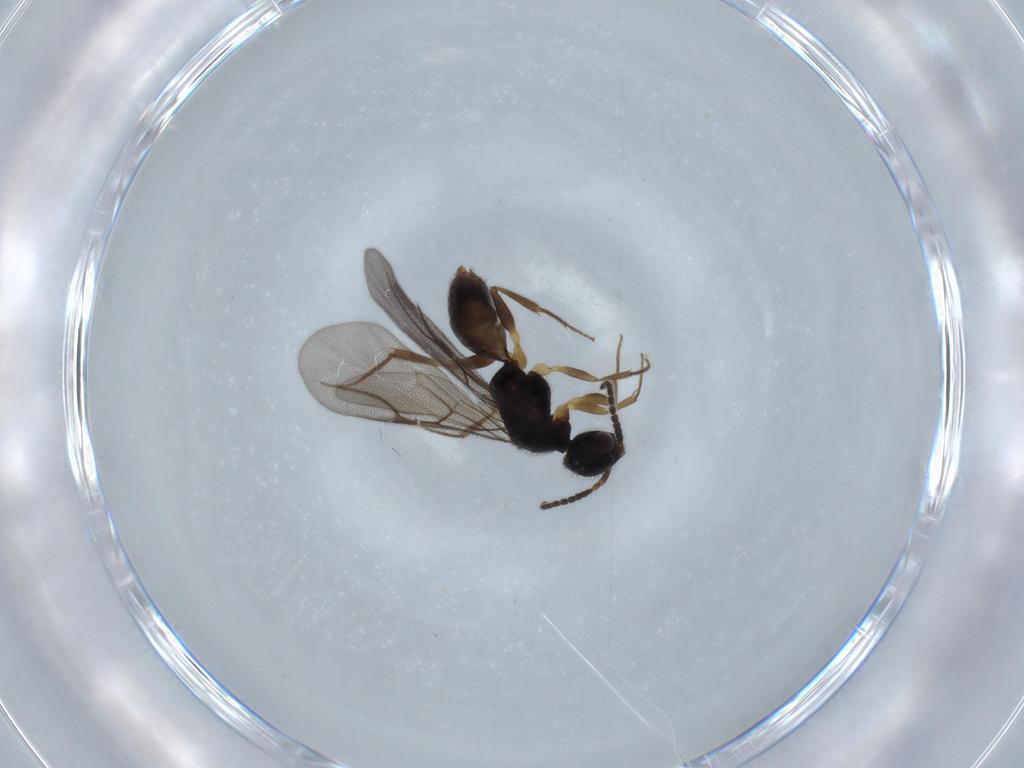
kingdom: Animalia
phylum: Arthropoda
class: Insecta
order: Hymenoptera
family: Bethylidae
